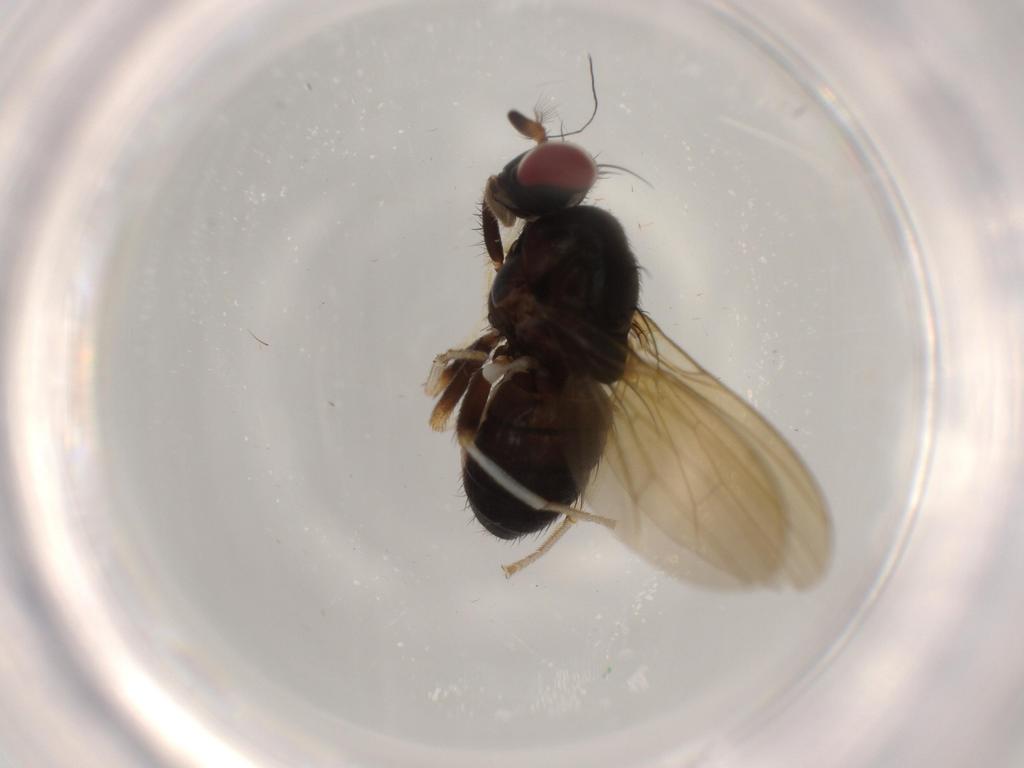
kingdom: Animalia
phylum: Arthropoda
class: Insecta
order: Diptera
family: Lauxaniidae
